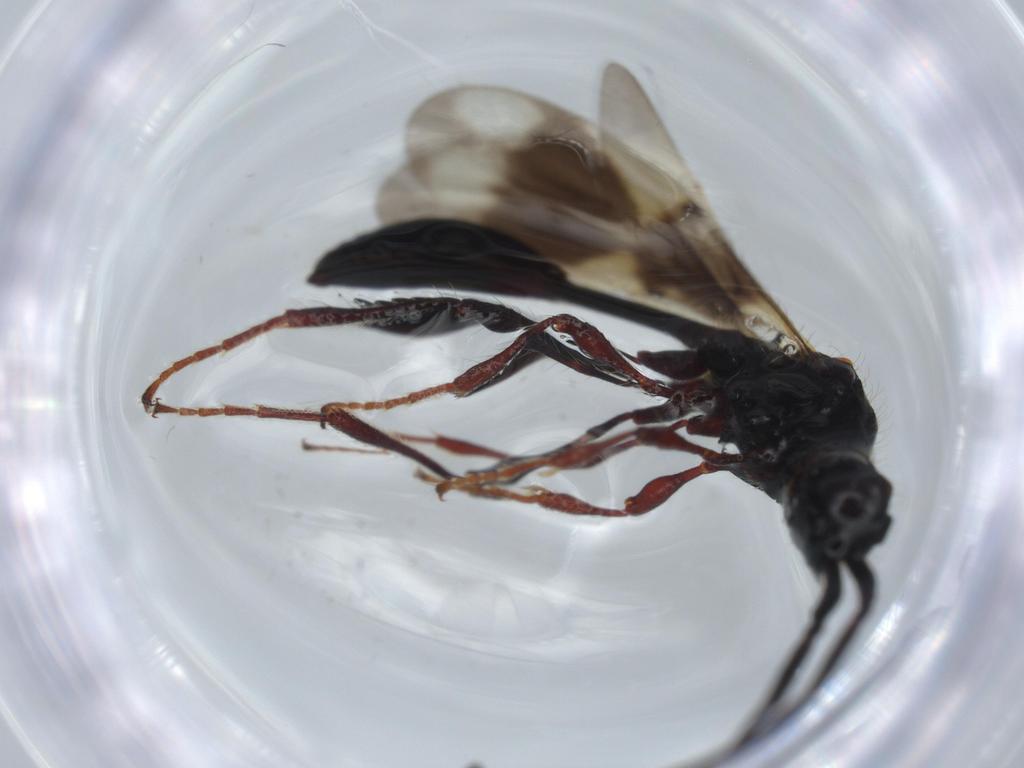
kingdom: Animalia
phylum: Arthropoda
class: Insecta
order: Hymenoptera
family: Diapriidae
